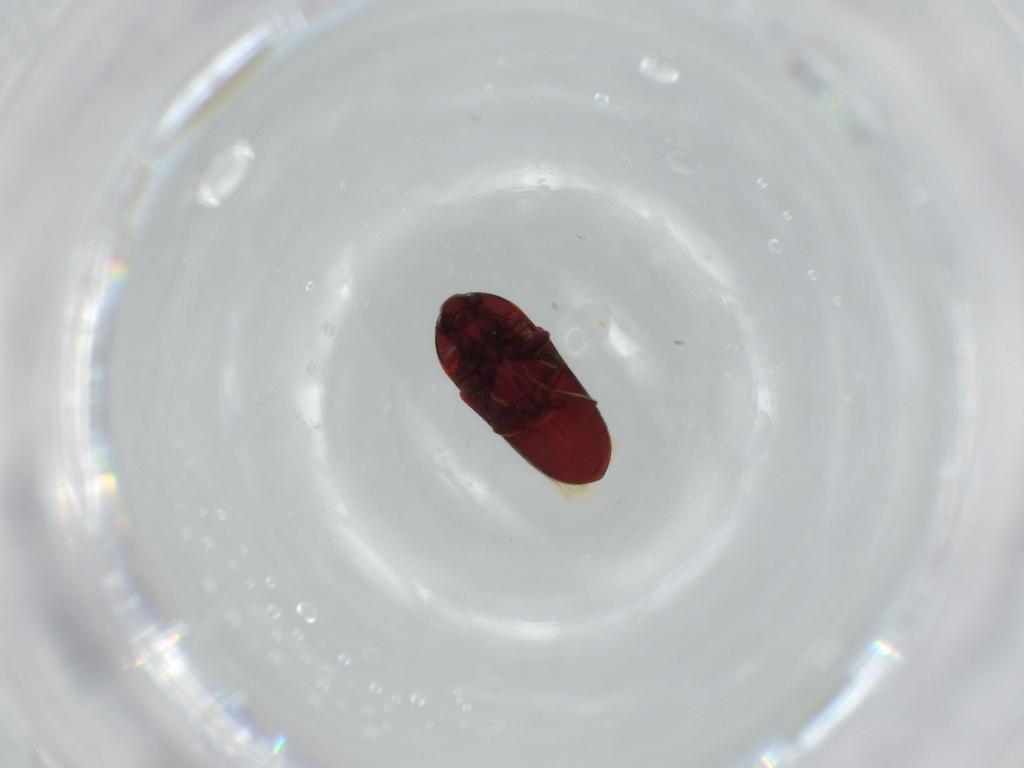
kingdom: Animalia
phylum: Arthropoda
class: Insecta
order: Coleoptera
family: Throscidae
